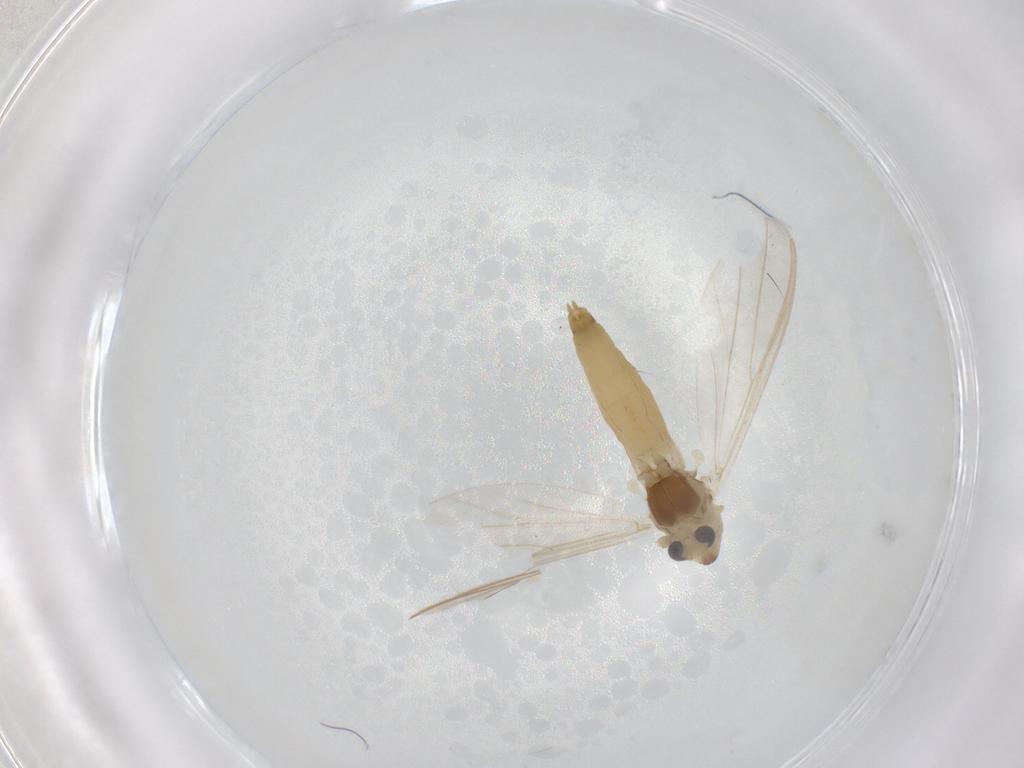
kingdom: Animalia
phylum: Arthropoda
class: Insecta
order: Diptera
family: Chironomidae
